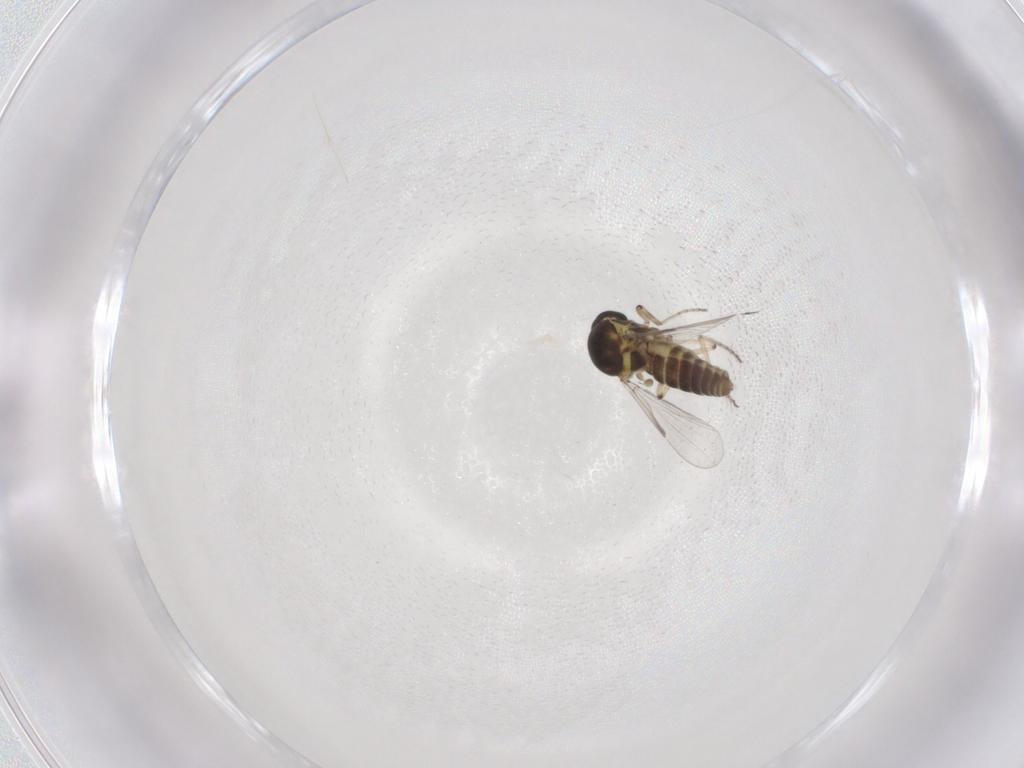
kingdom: Animalia
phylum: Arthropoda
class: Insecta
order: Diptera
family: Ceratopogonidae
